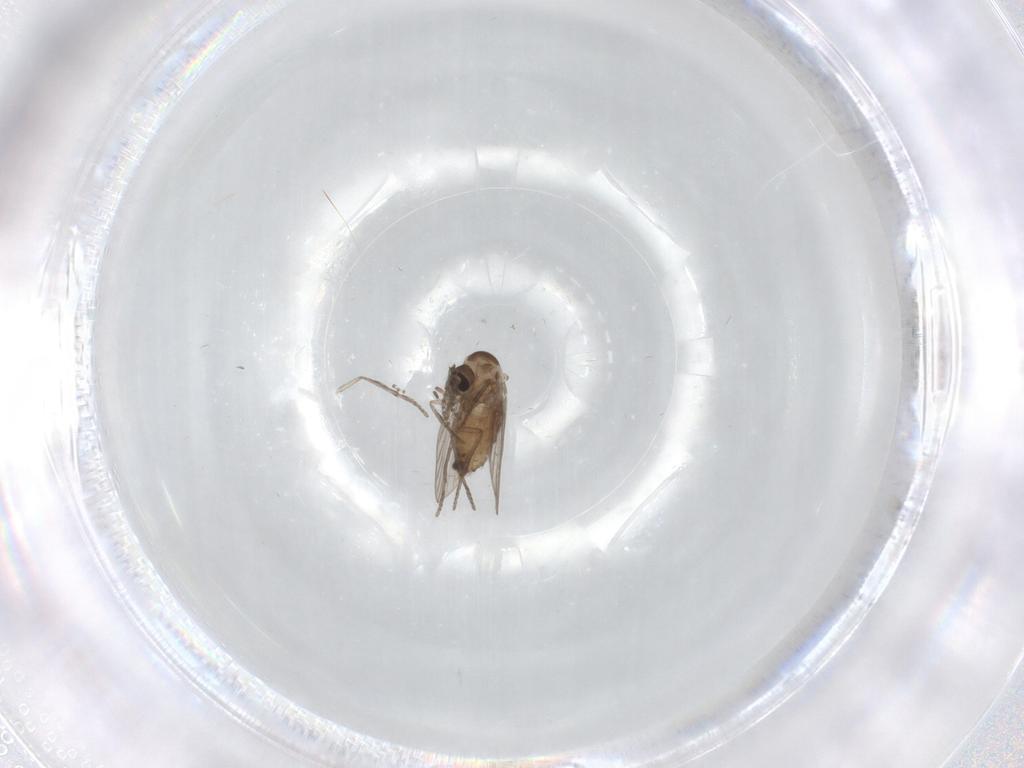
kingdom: Animalia
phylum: Arthropoda
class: Insecta
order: Diptera
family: Psychodidae
